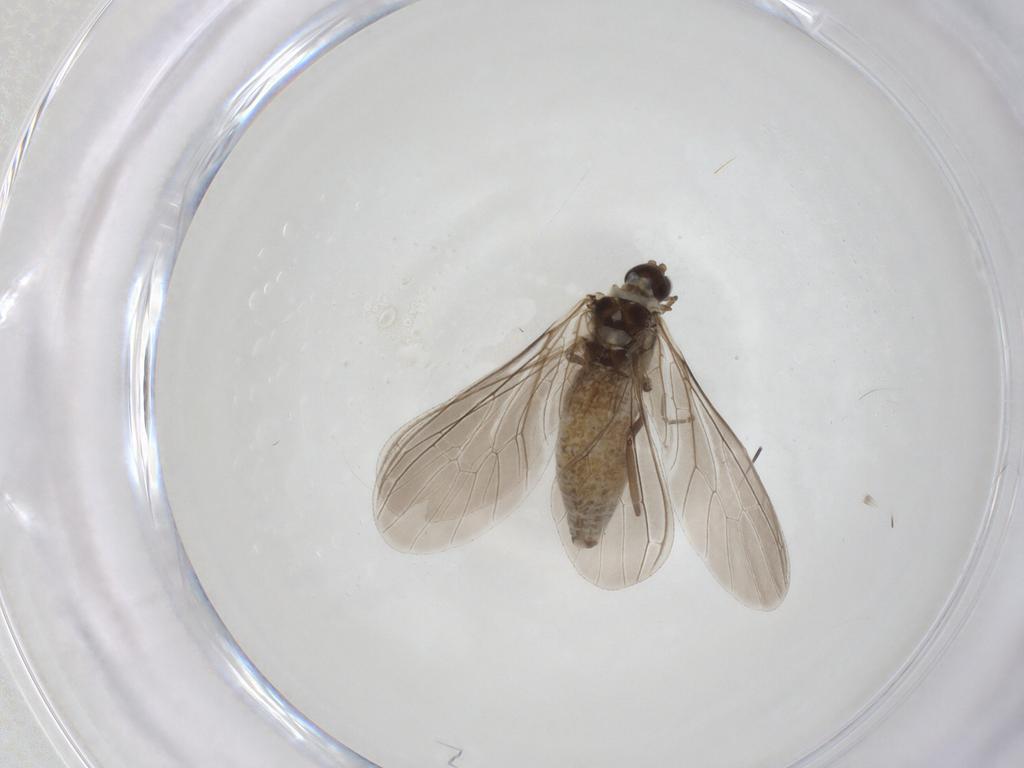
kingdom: Animalia
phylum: Arthropoda
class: Insecta
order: Neuroptera
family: Coniopterygidae
